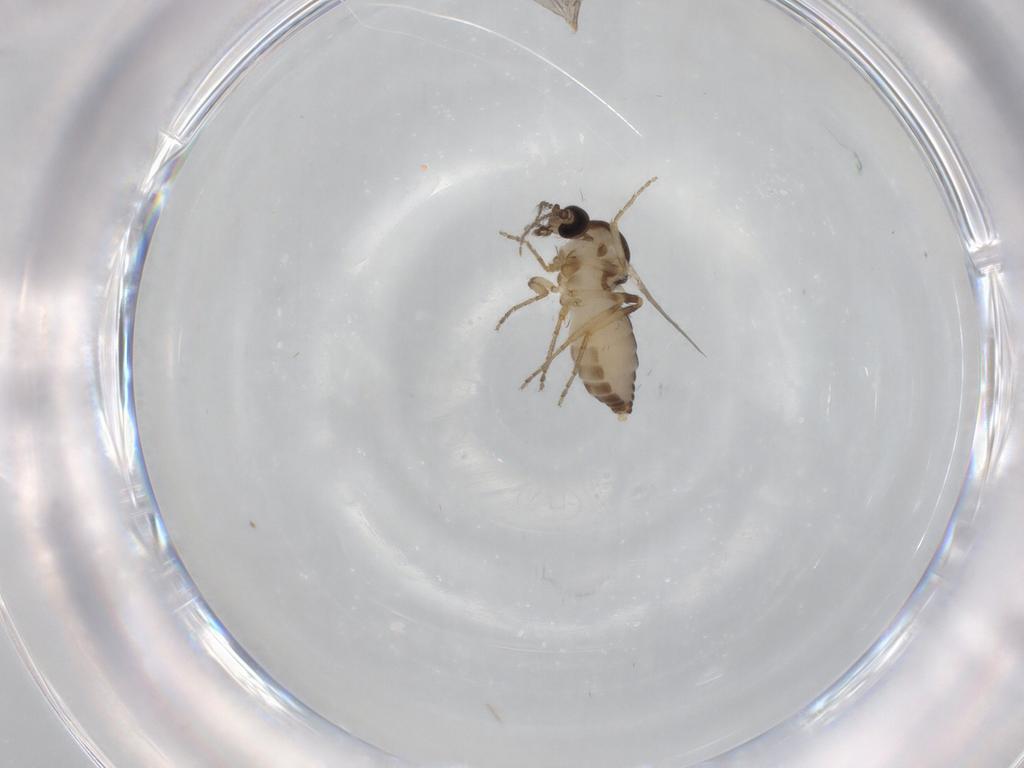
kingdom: Animalia
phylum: Arthropoda
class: Insecta
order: Diptera
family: Ceratopogonidae
